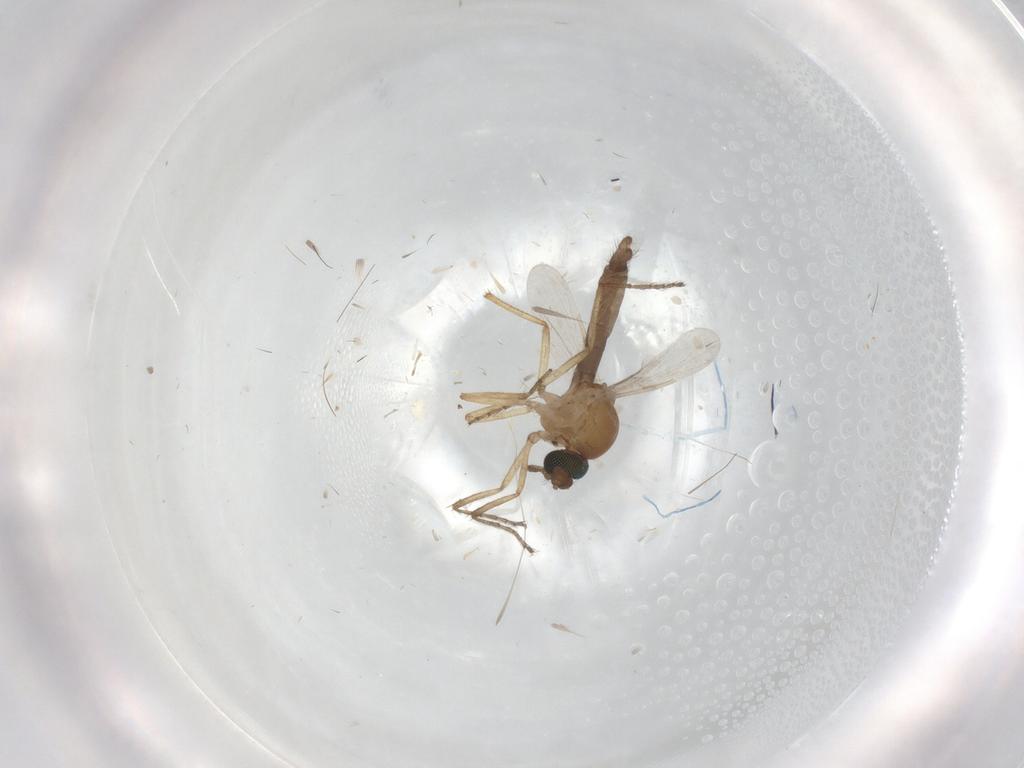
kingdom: Animalia
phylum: Arthropoda
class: Insecta
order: Diptera
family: Ceratopogonidae
